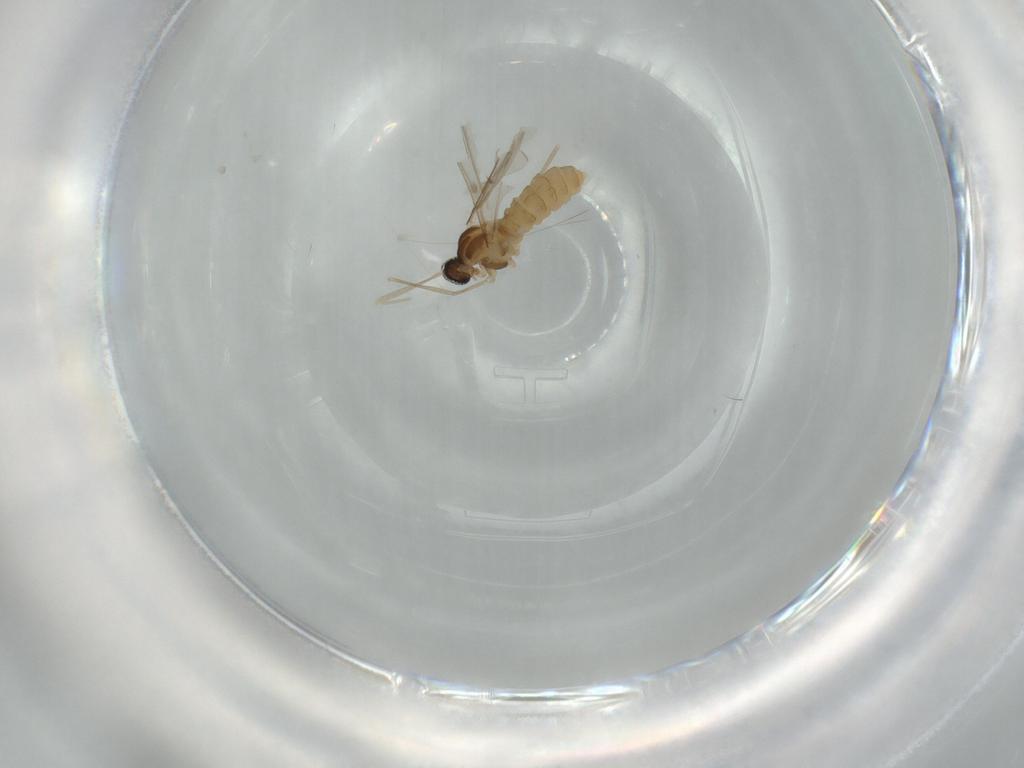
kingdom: Animalia
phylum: Arthropoda
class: Insecta
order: Diptera
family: Cecidomyiidae
